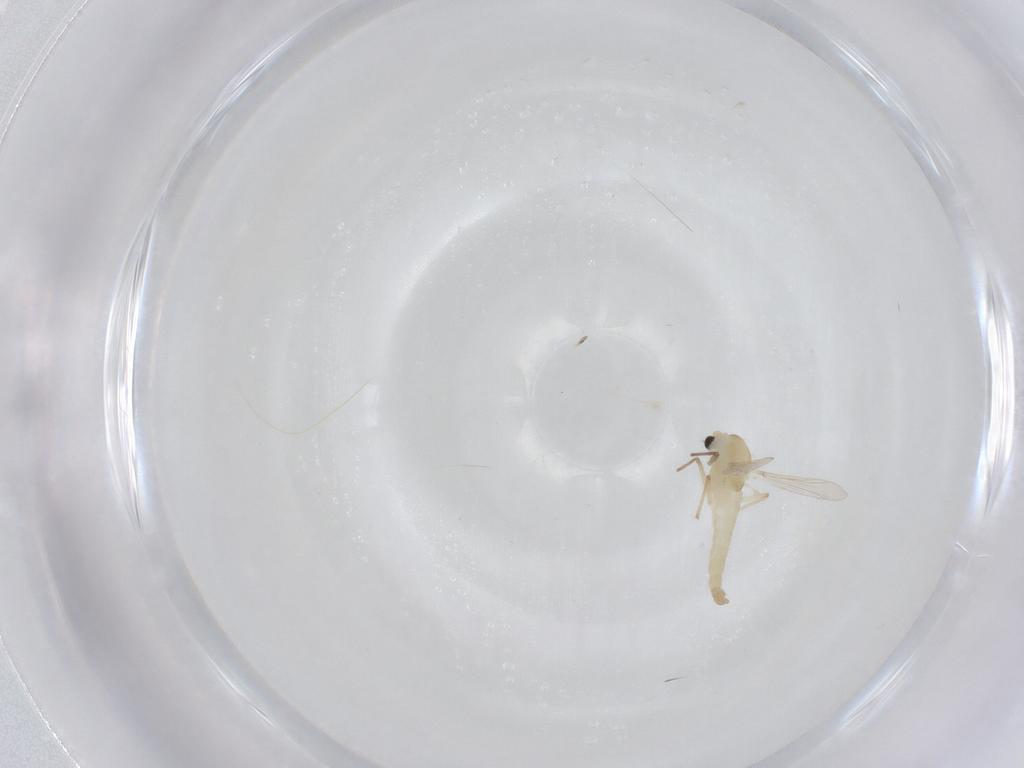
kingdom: Animalia
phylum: Arthropoda
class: Insecta
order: Diptera
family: Chironomidae
